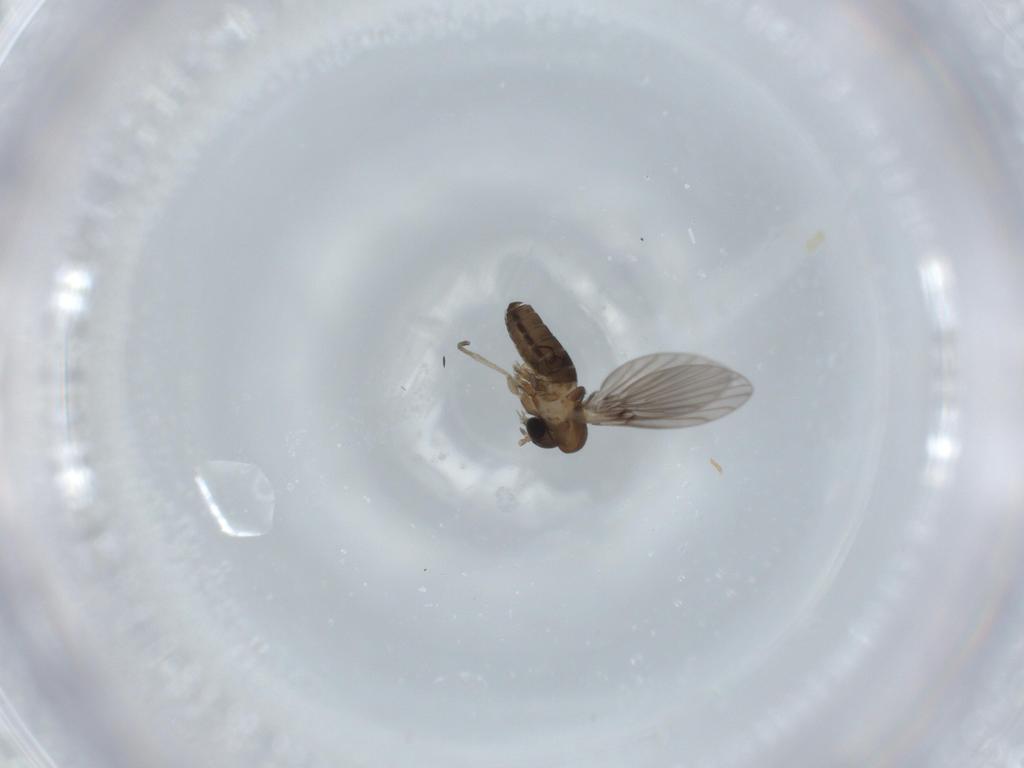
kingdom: Animalia
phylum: Arthropoda
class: Insecta
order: Diptera
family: Psychodidae
